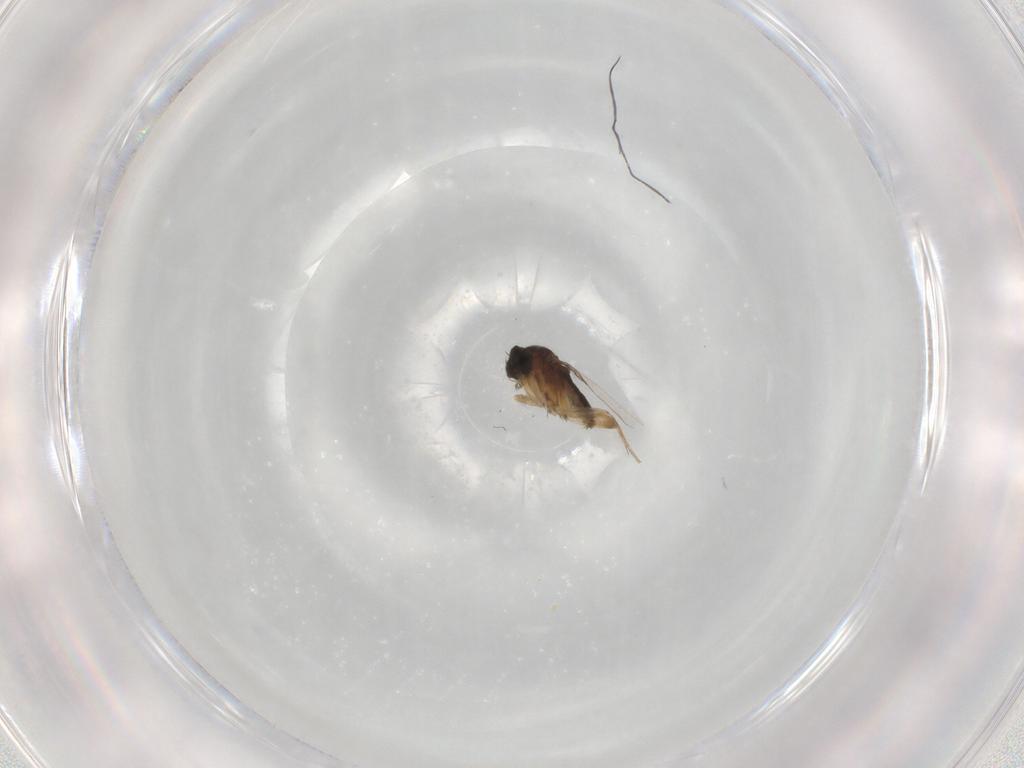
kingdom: Animalia
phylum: Arthropoda
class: Insecta
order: Diptera
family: Phoridae
